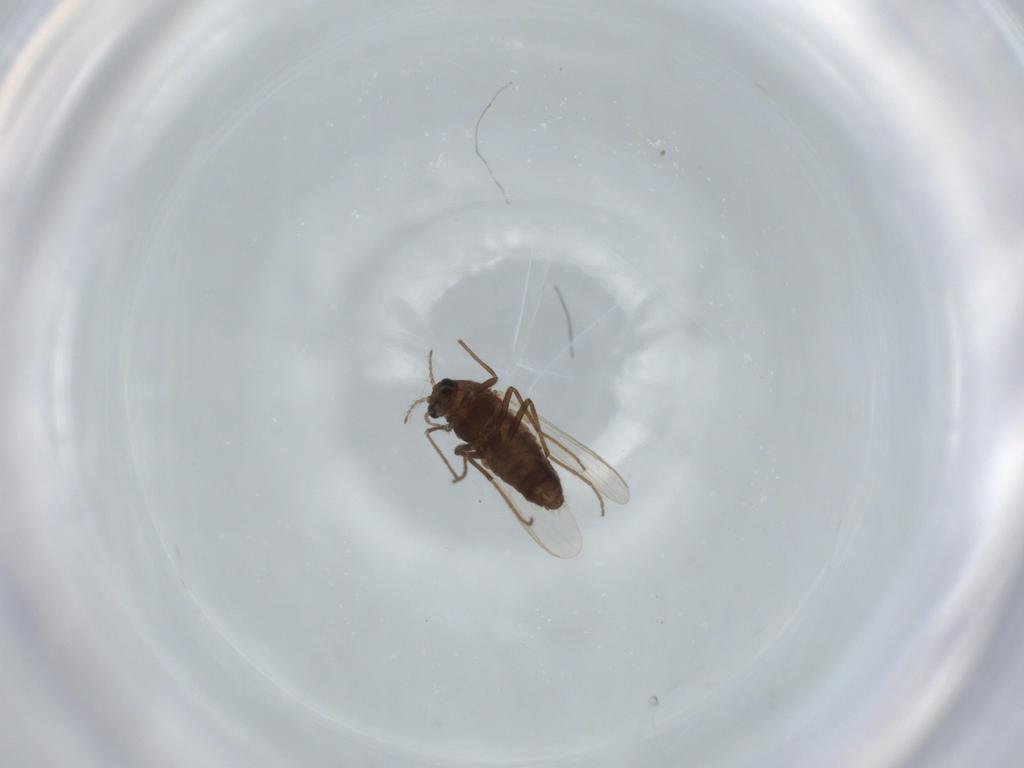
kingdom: Animalia
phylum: Arthropoda
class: Insecta
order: Diptera
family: Chironomidae
